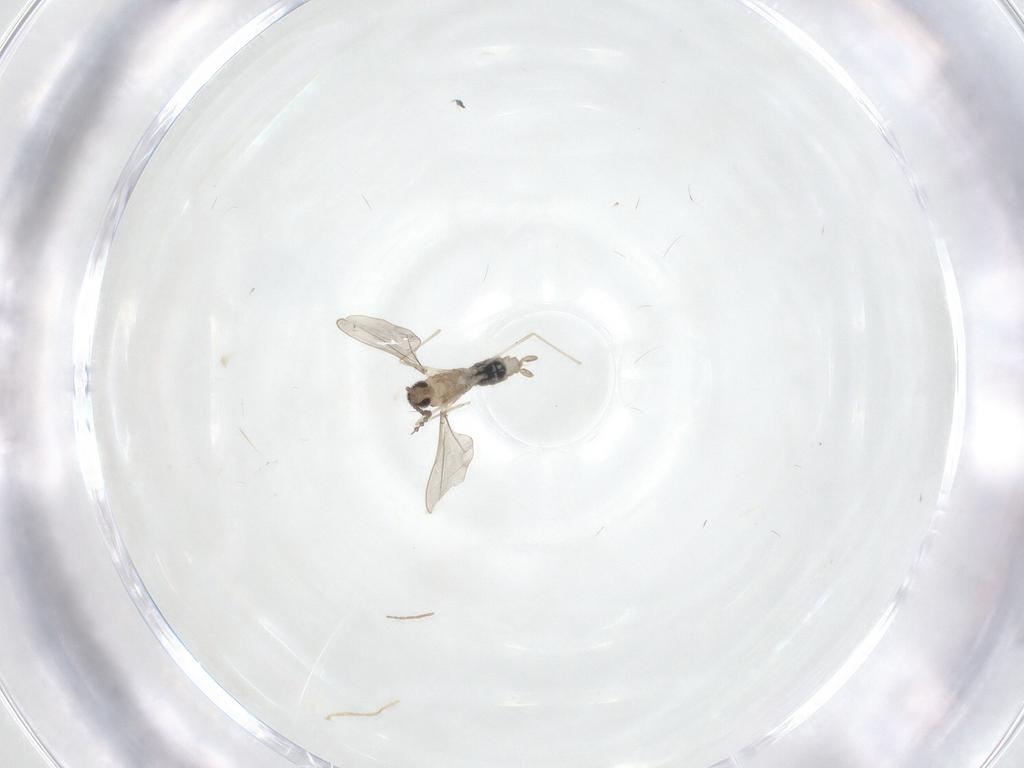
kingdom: Animalia
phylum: Arthropoda
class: Insecta
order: Diptera
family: Cecidomyiidae
